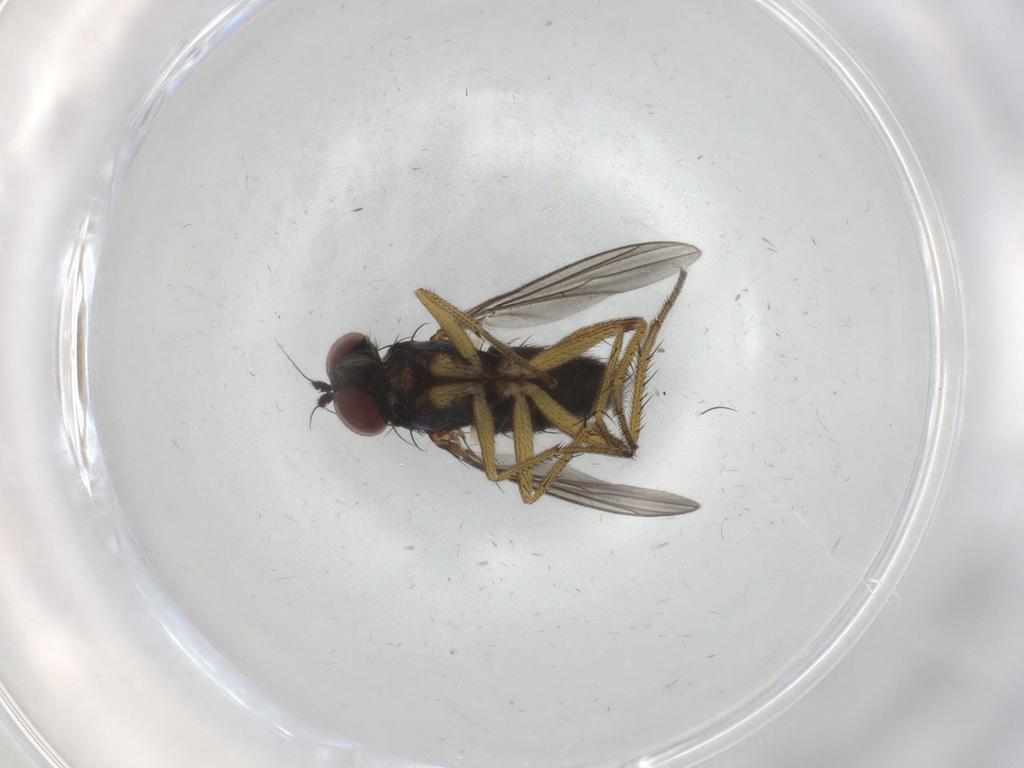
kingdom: Animalia
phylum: Arthropoda
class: Insecta
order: Diptera
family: Dolichopodidae
